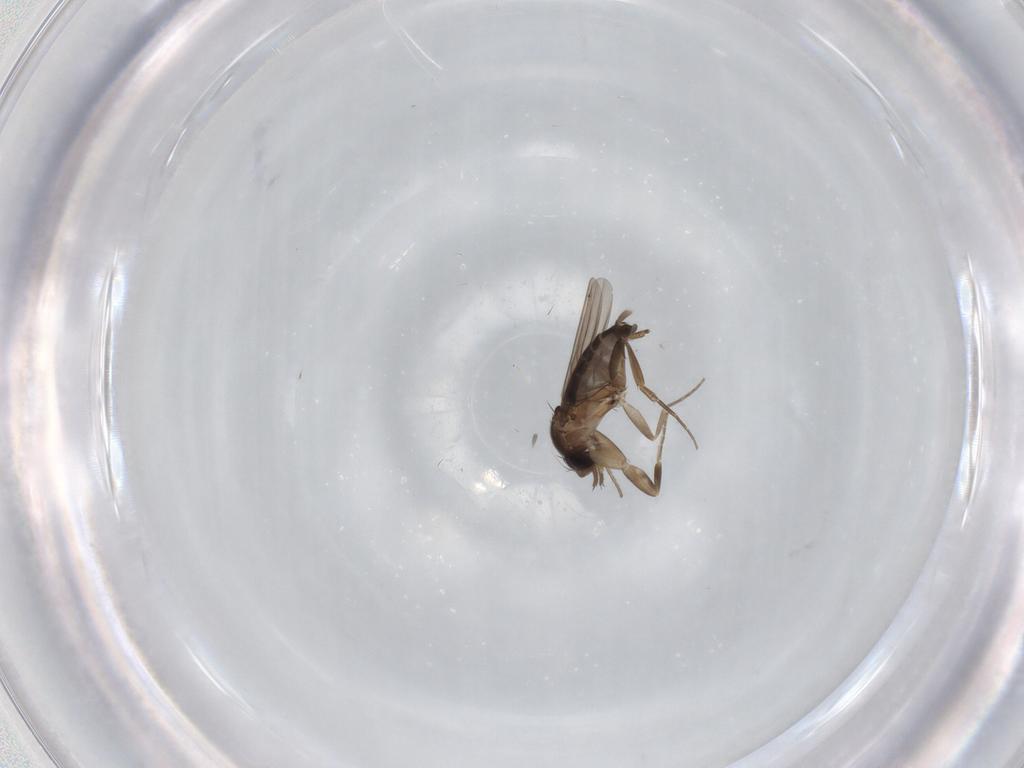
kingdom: Animalia
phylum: Arthropoda
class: Insecta
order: Diptera
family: Phoridae
